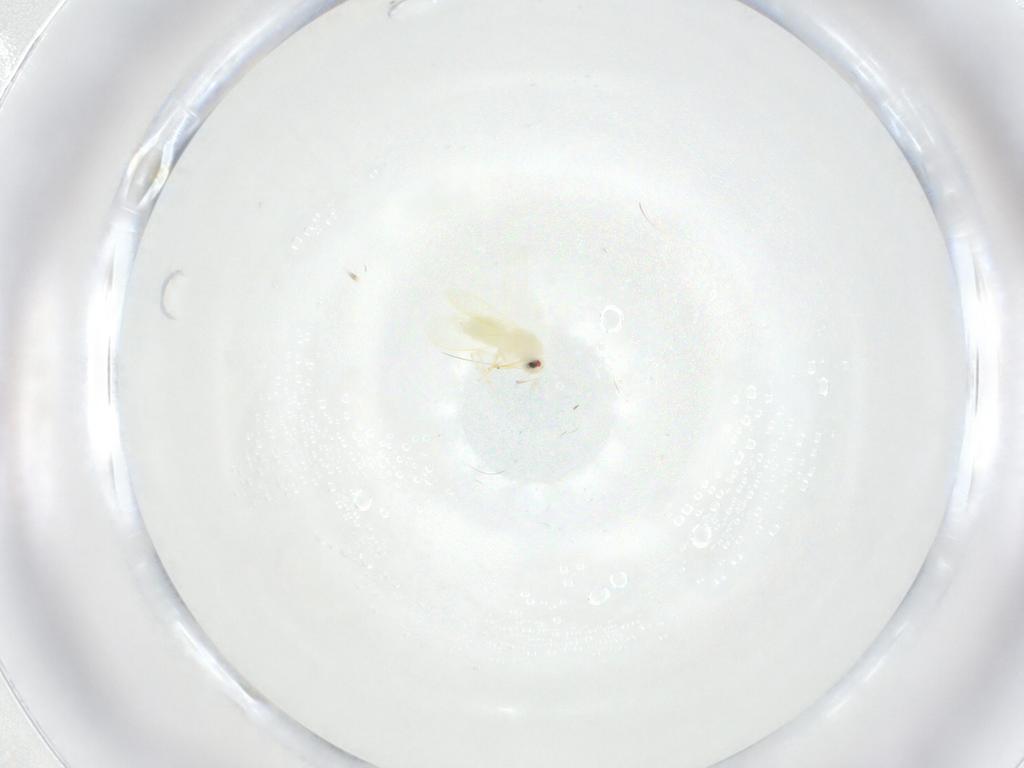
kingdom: Animalia
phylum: Arthropoda
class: Insecta
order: Hemiptera
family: Aleyrodidae
